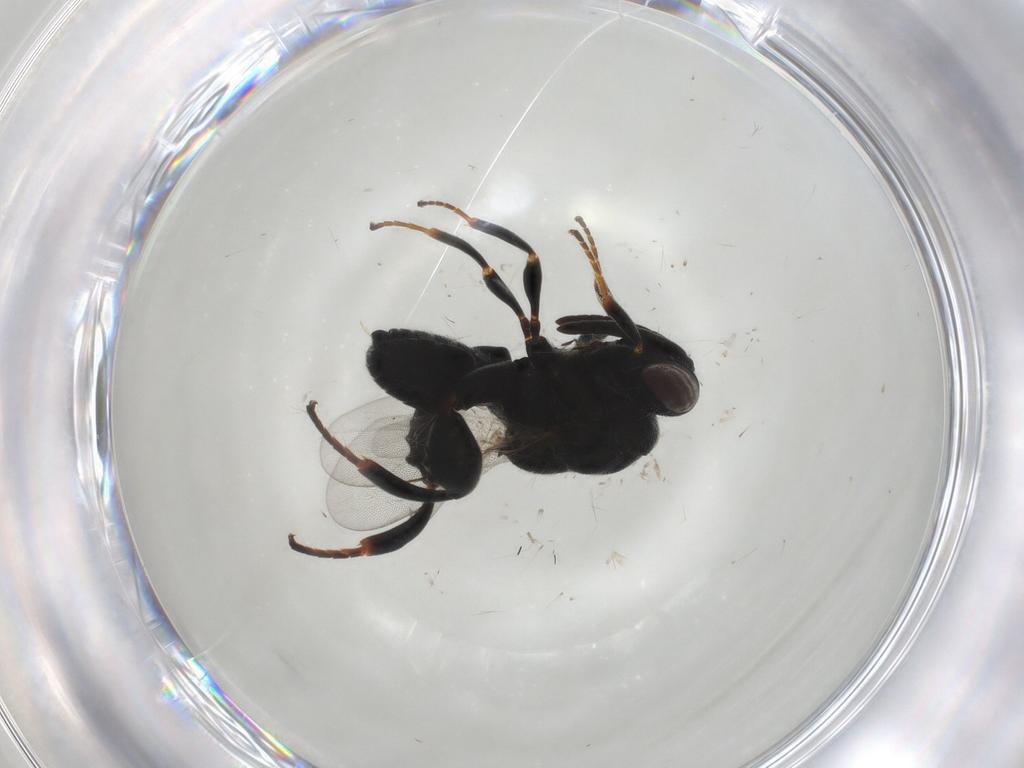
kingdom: Animalia
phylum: Arthropoda
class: Insecta
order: Hymenoptera
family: Chalcididae
